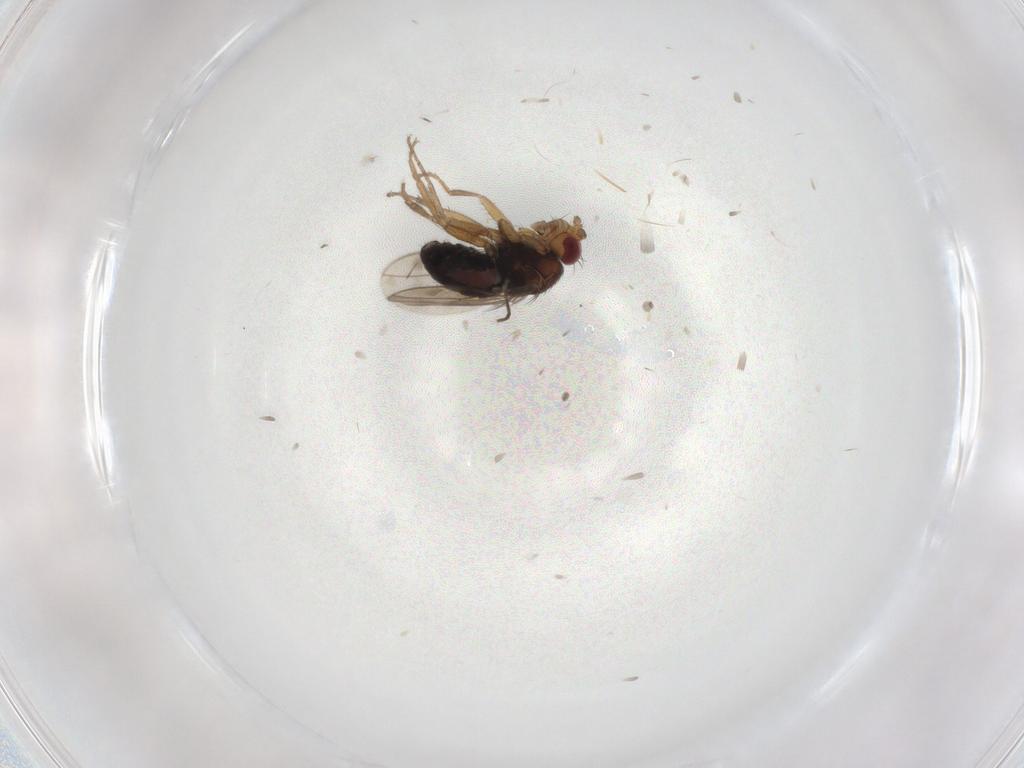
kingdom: Animalia
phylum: Arthropoda
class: Insecta
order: Diptera
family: Sphaeroceridae
